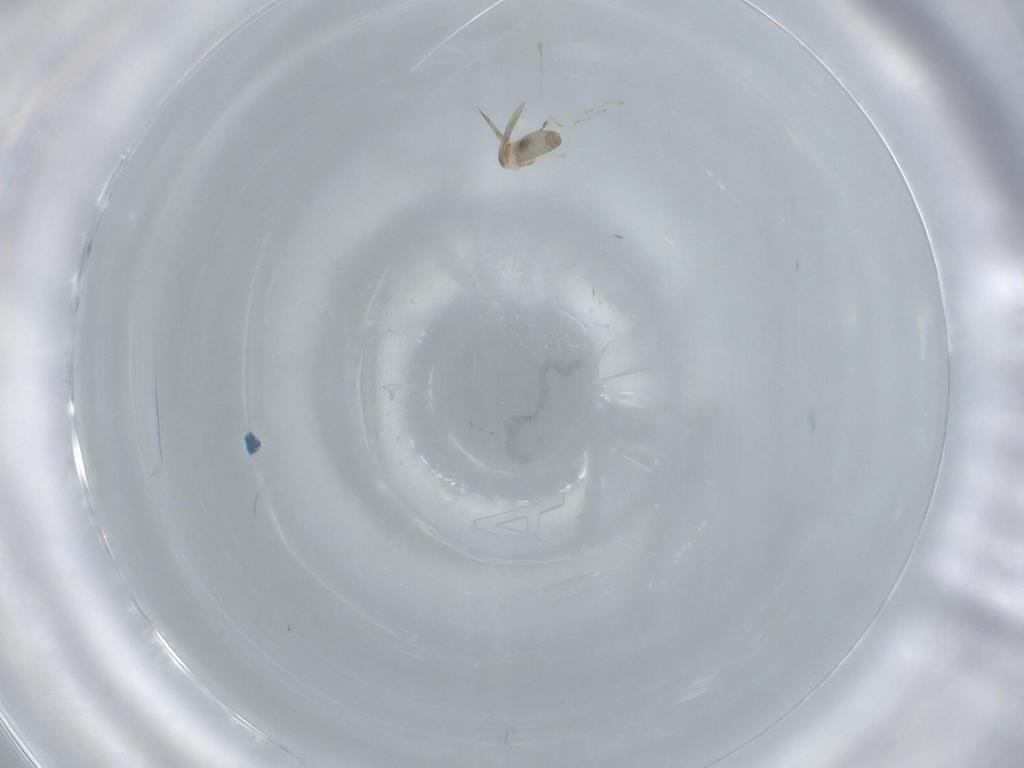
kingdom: Animalia
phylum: Arthropoda
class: Insecta
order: Diptera
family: Cecidomyiidae
